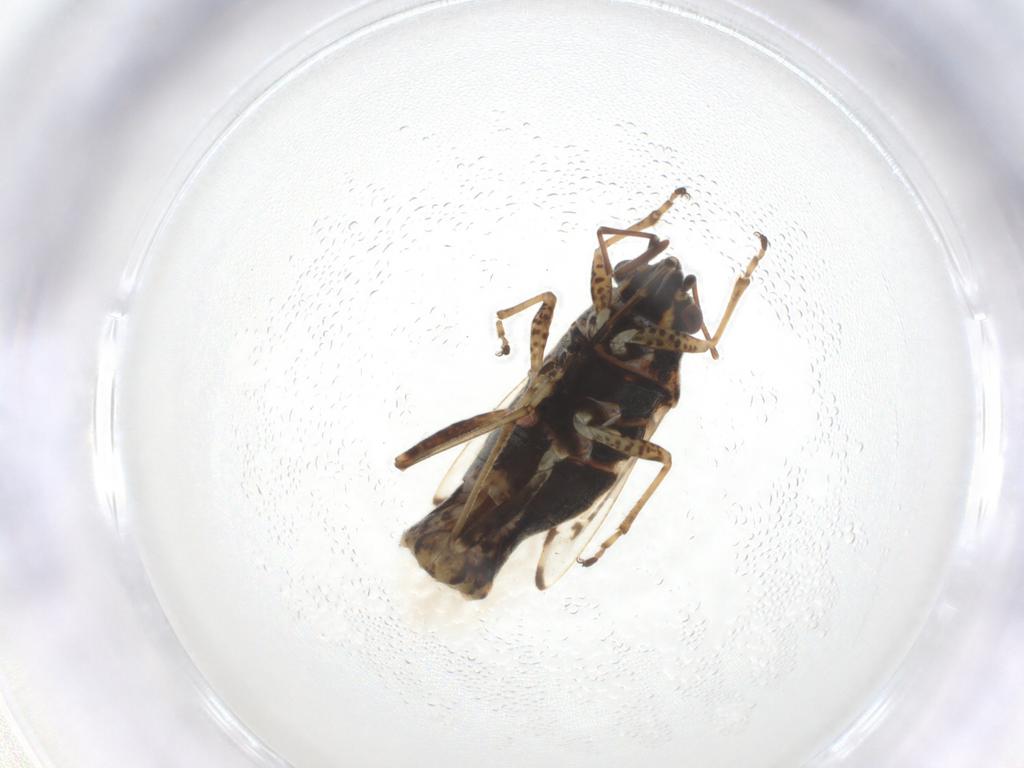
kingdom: Animalia
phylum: Arthropoda
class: Insecta
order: Hemiptera
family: Lygaeidae
